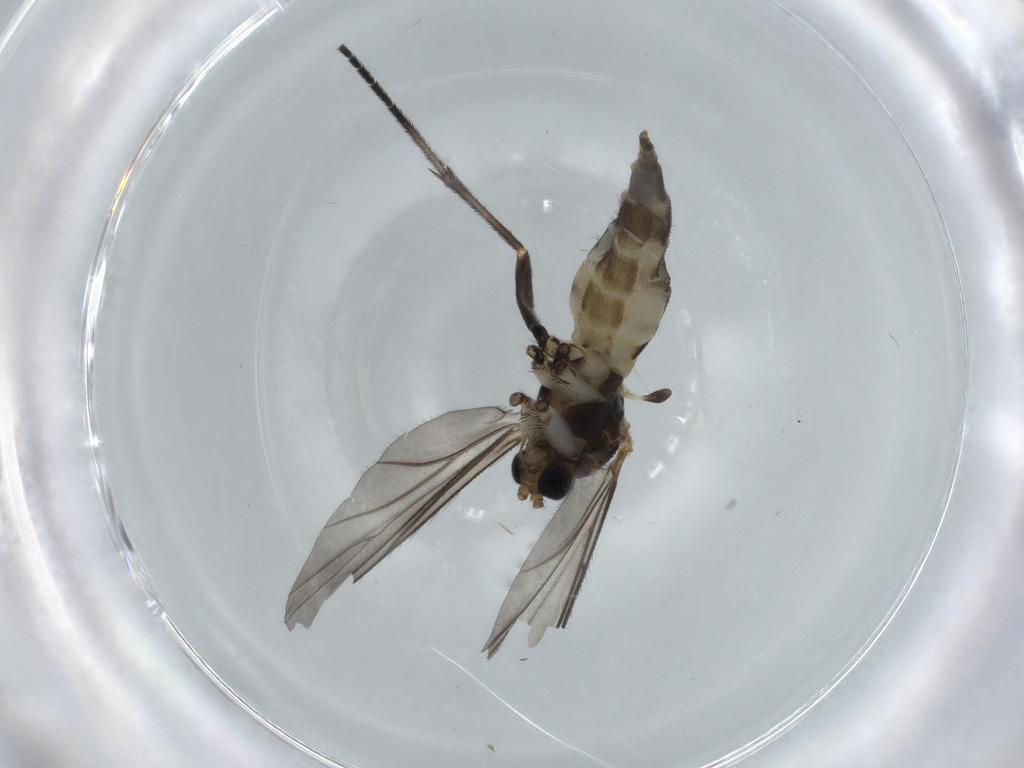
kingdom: Animalia
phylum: Arthropoda
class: Insecta
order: Diptera
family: Sciaridae
